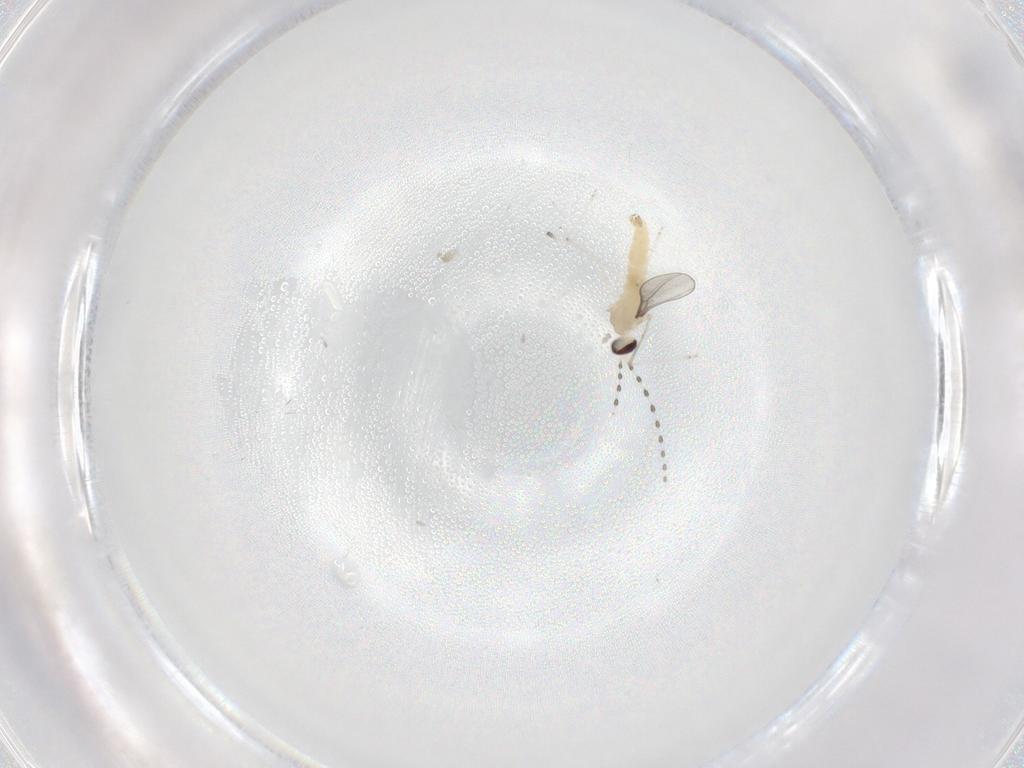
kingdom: Animalia
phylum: Arthropoda
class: Insecta
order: Diptera
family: Cecidomyiidae
